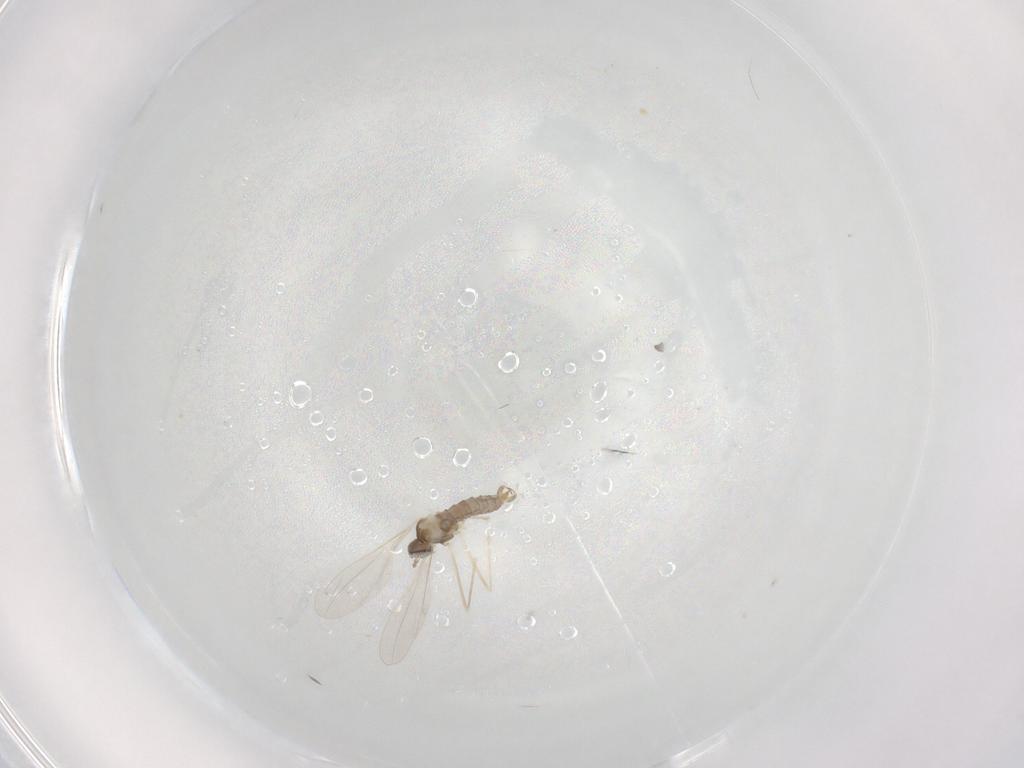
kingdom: Animalia
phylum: Arthropoda
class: Insecta
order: Diptera
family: Cecidomyiidae
